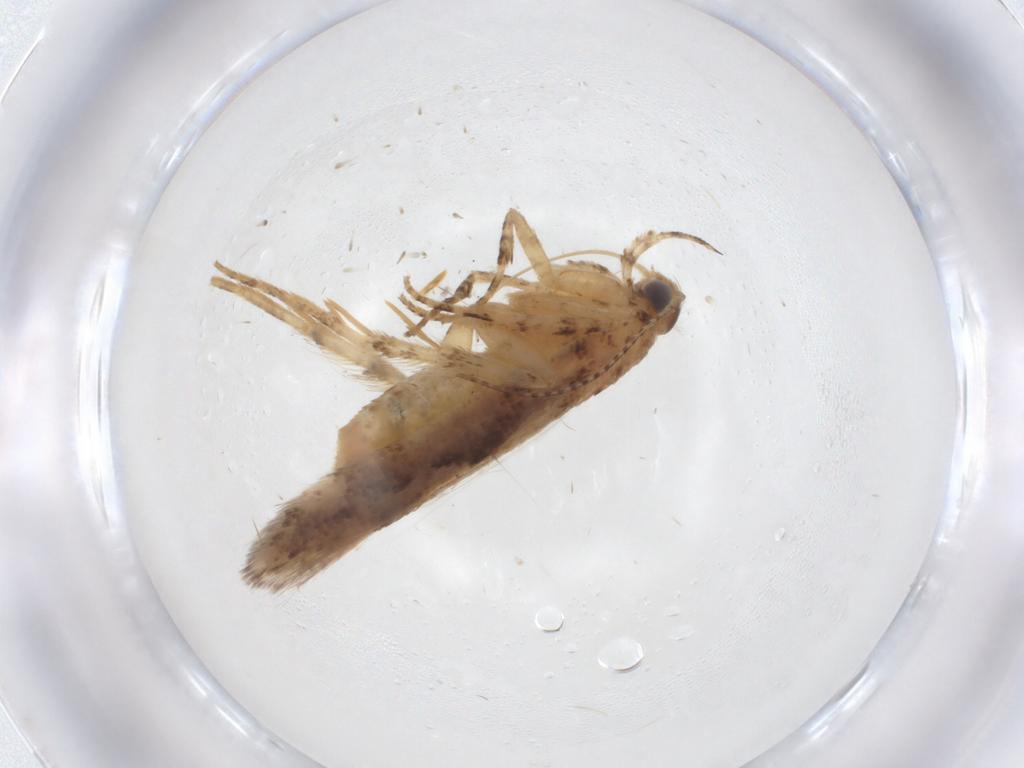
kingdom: Animalia
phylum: Arthropoda
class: Insecta
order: Lepidoptera
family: Gelechiidae
